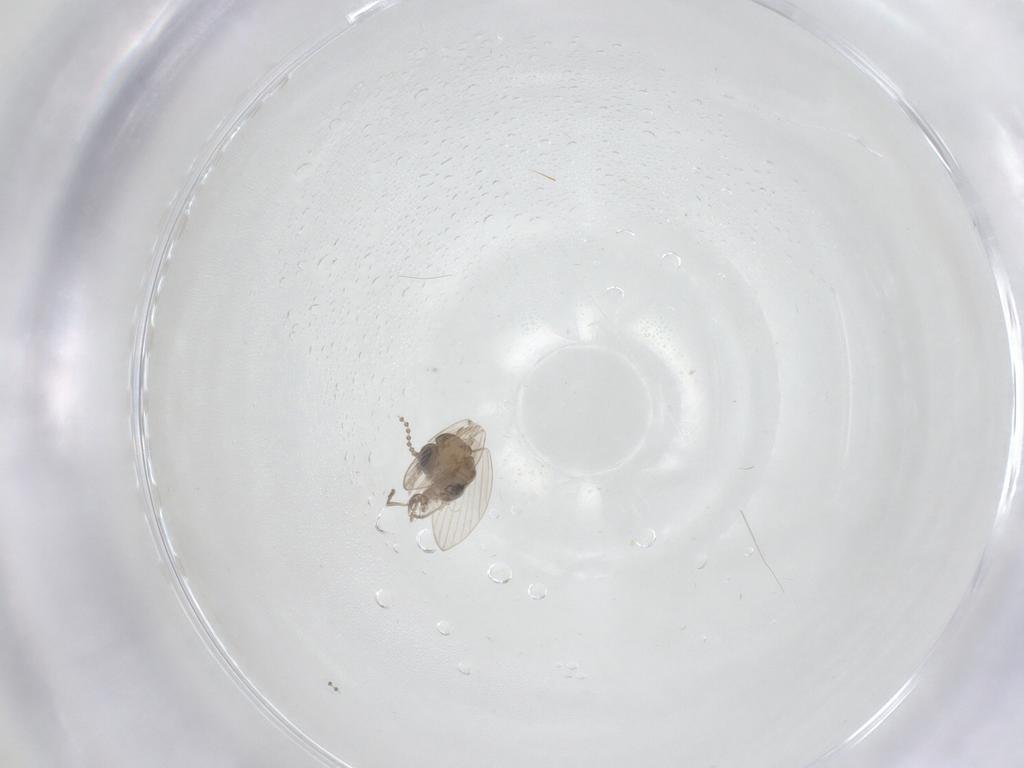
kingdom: Animalia
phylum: Arthropoda
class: Insecta
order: Diptera
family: Psychodidae
